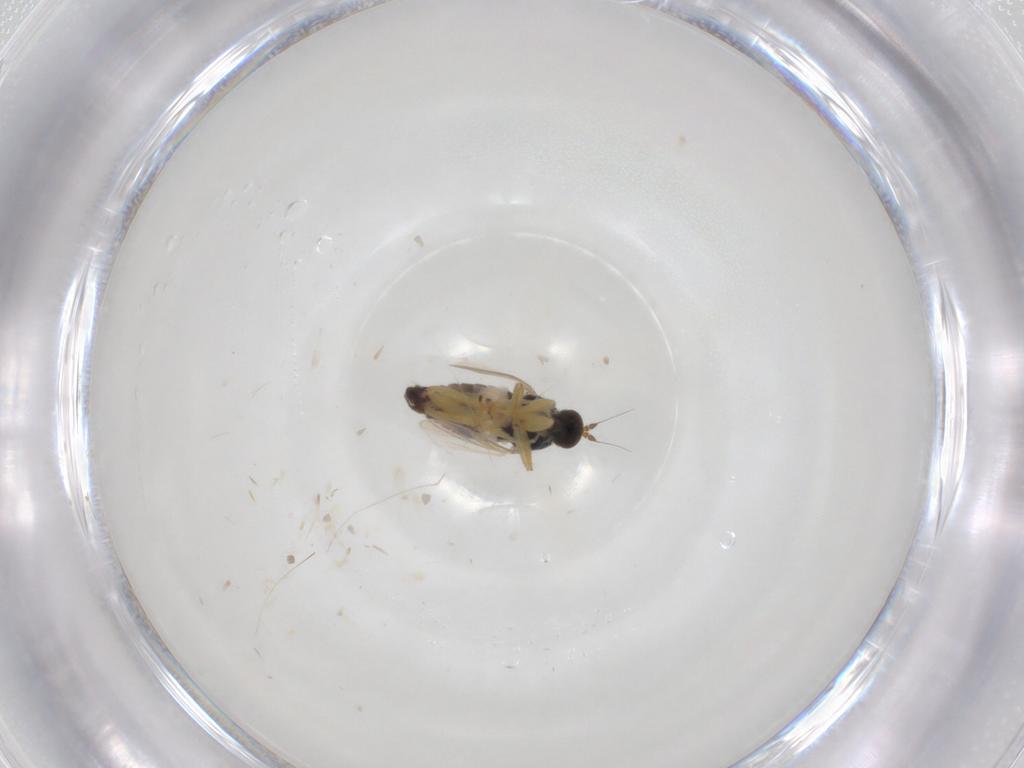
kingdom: Animalia
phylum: Arthropoda
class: Insecta
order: Diptera
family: Hybotidae
